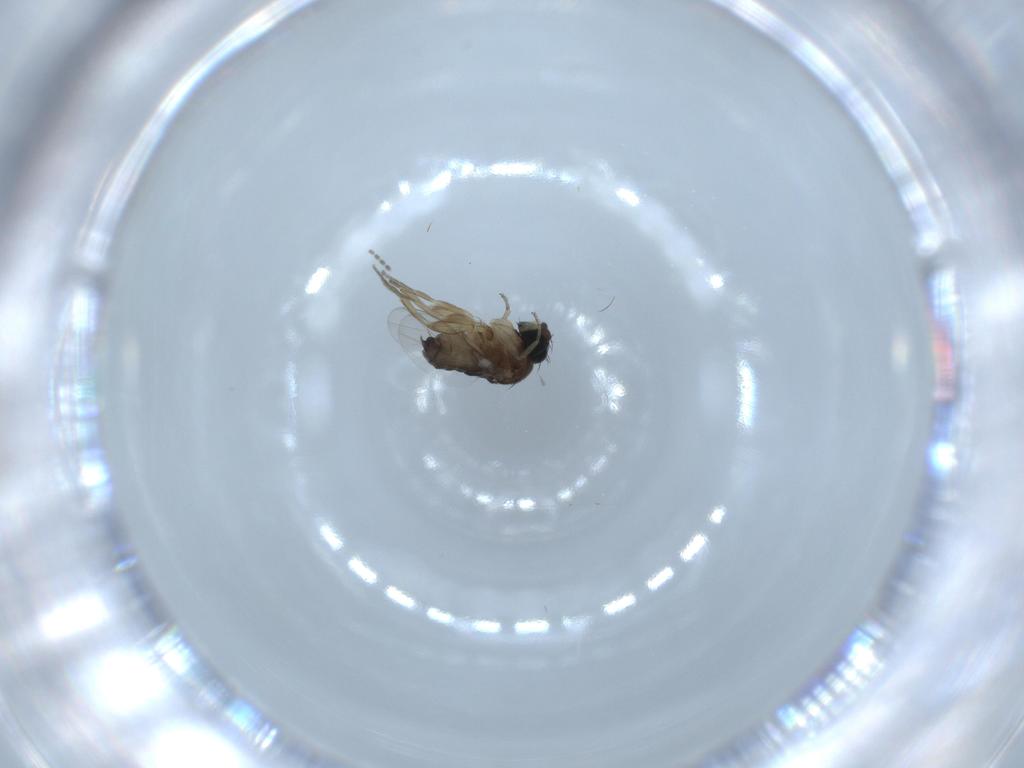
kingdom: Animalia
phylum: Arthropoda
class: Insecta
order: Diptera
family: Cecidomyiidae
